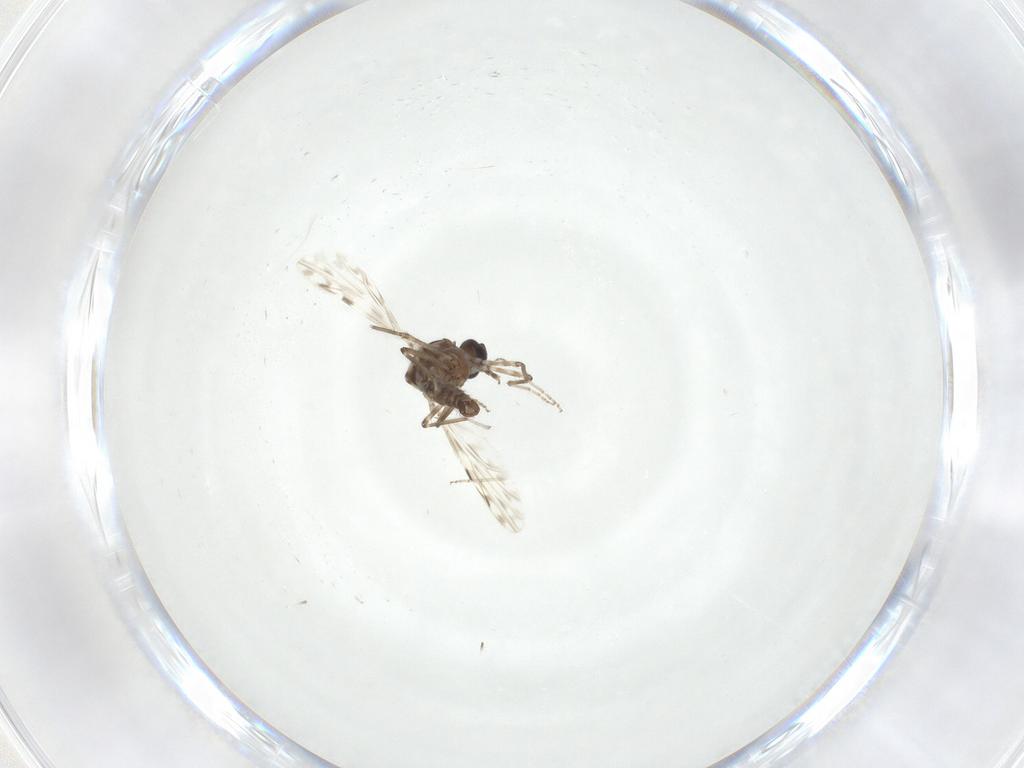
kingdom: Animalia
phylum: Arthropoda
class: Insecta
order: Diptera
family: Ceratopogonidae
